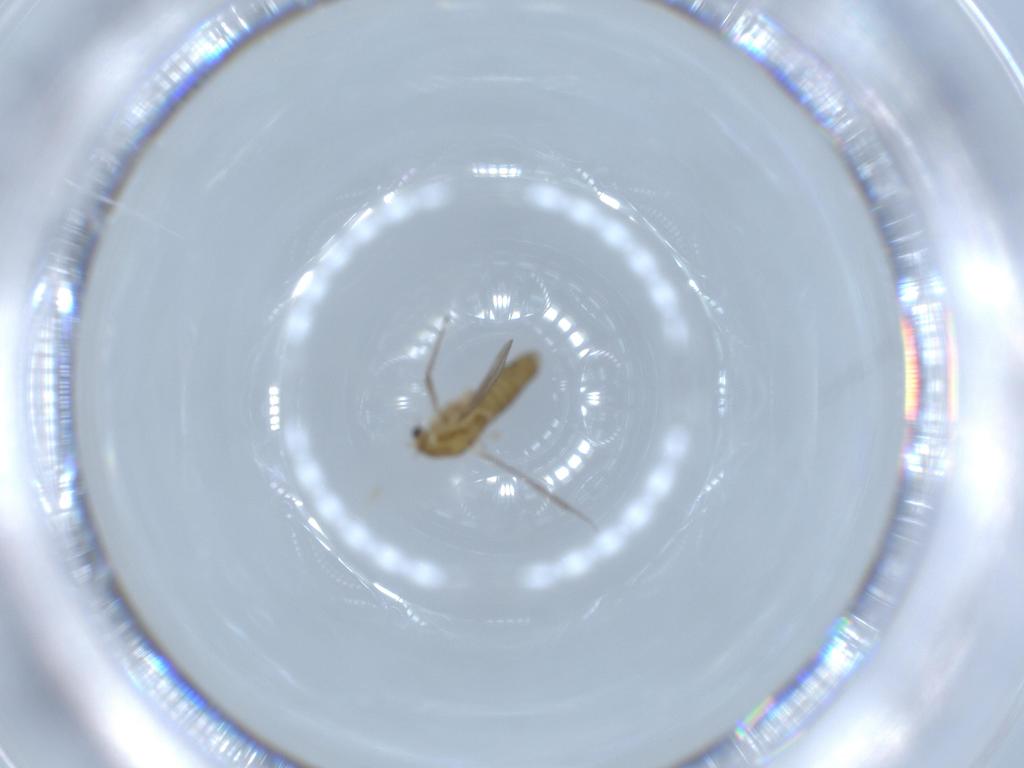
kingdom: Animalia
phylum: Arthropoda
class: Insecta
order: Diptera
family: Chironomidae
